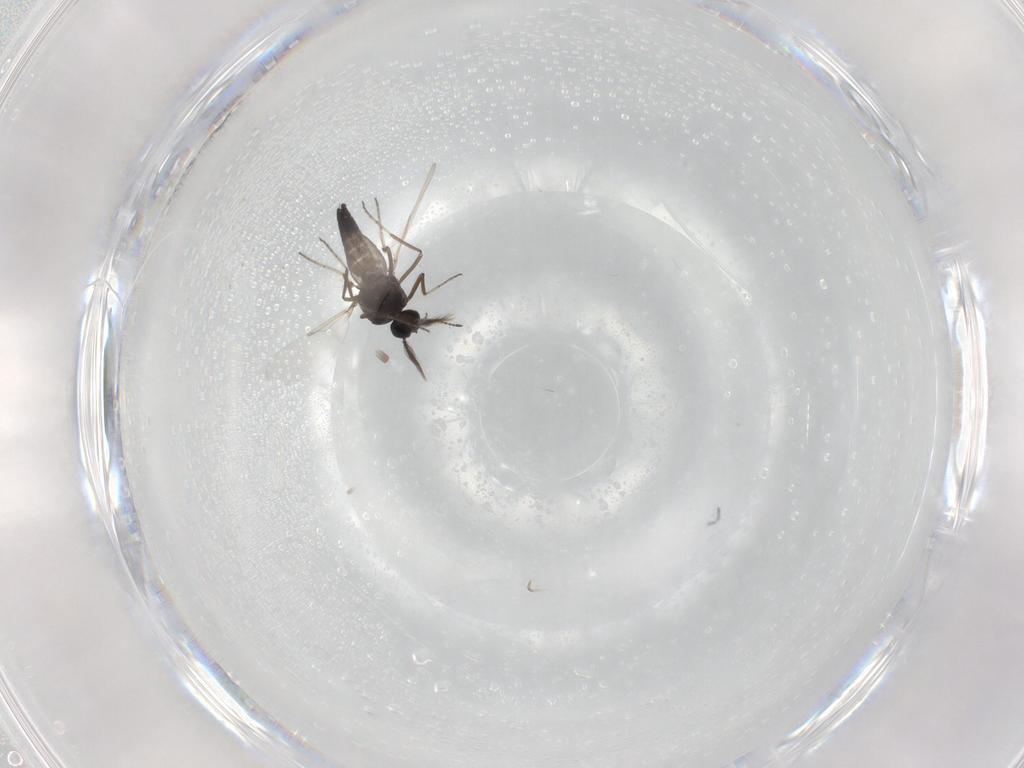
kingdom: Animalia
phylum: Arthropoda
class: Insecta
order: Diptera
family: Ceratopogonidae
